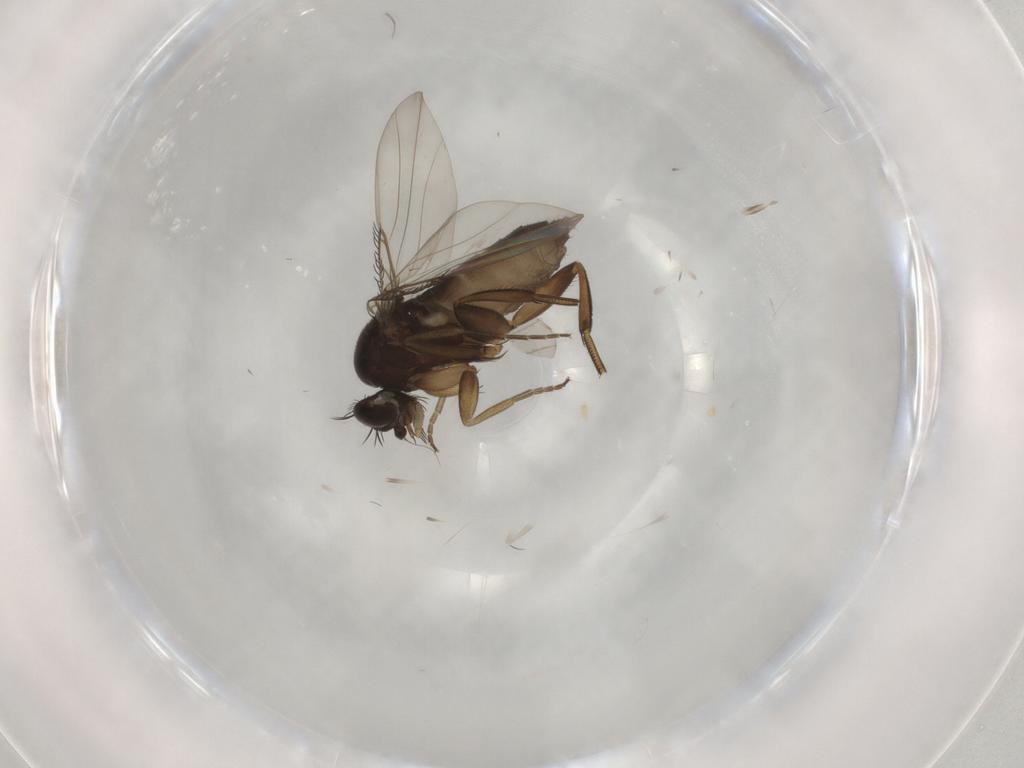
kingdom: Animalia
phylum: Arthropoda
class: Insecta
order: Diptera
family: Phoridae
